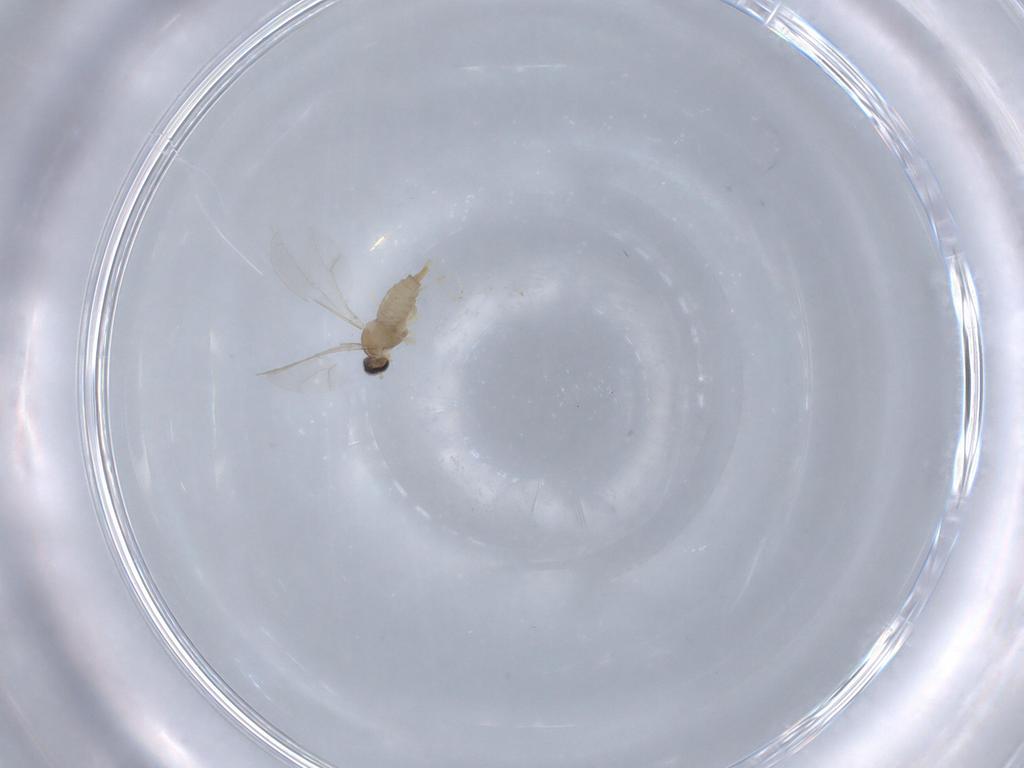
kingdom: Animalia
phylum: Arthropoda
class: Insecta
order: Diptera
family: Cecidomyiidae
